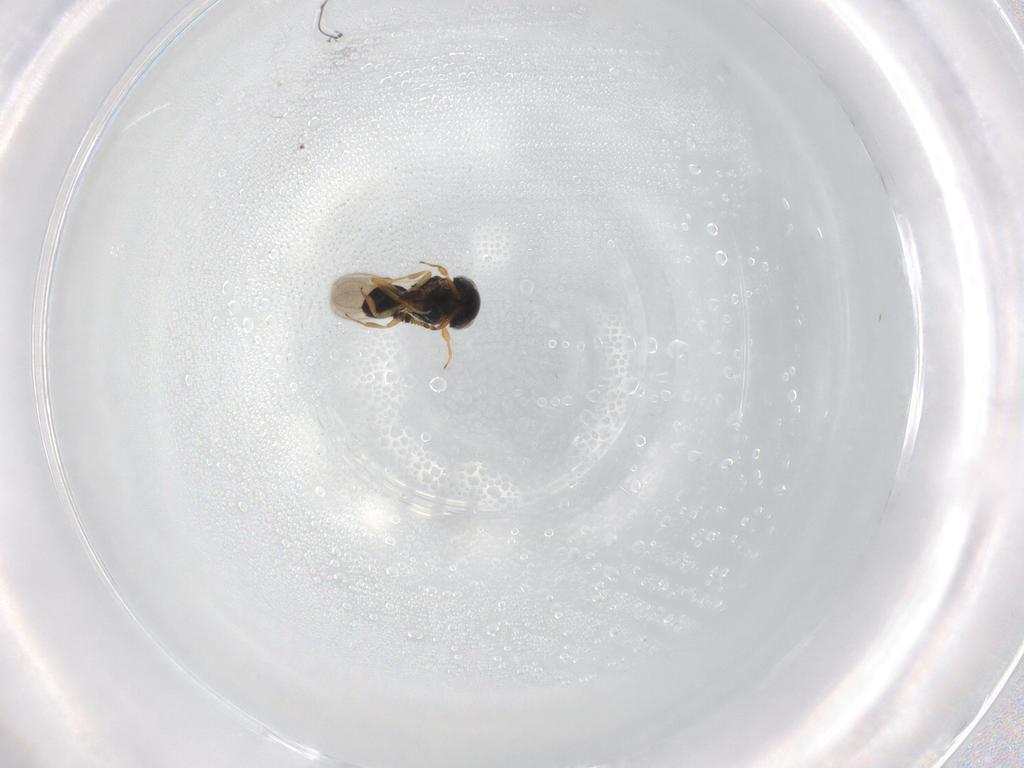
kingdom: Animalia
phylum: Arthropoda
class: Insecta
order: Hymenoptera
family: Scelionidae
